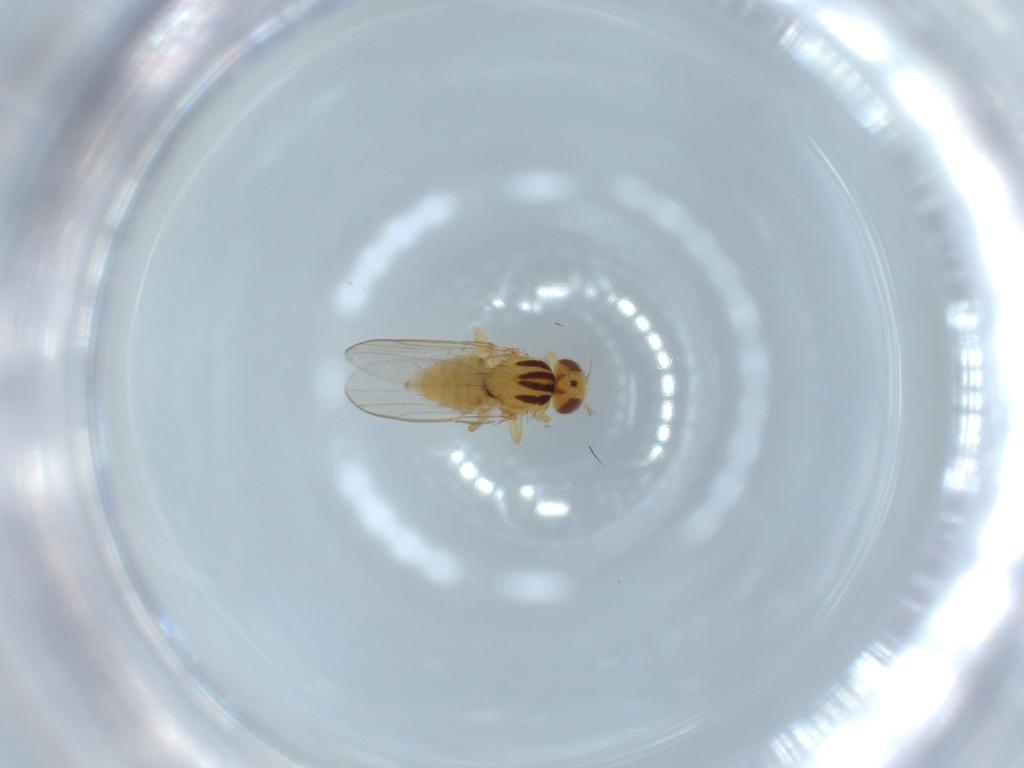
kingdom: Animalia
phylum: Arthropoda
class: Insecta
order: Diptera
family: Chloropidae
